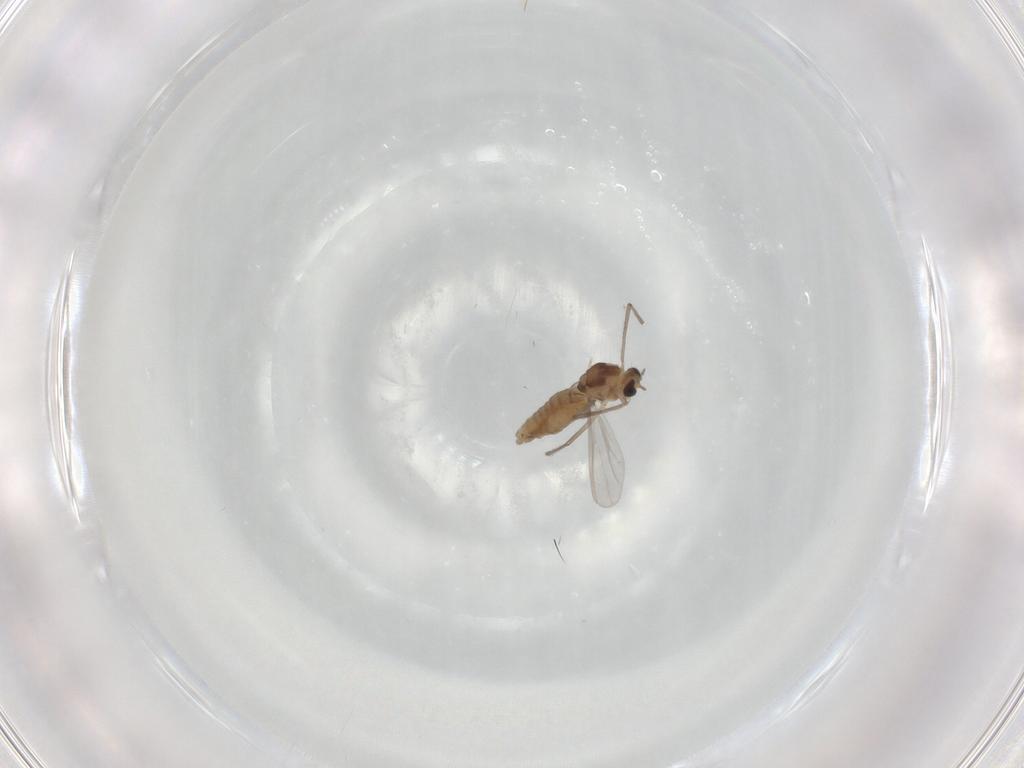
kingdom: Animalia
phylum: Arthropoda
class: Insecta
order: Diptera
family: Chironomidae
